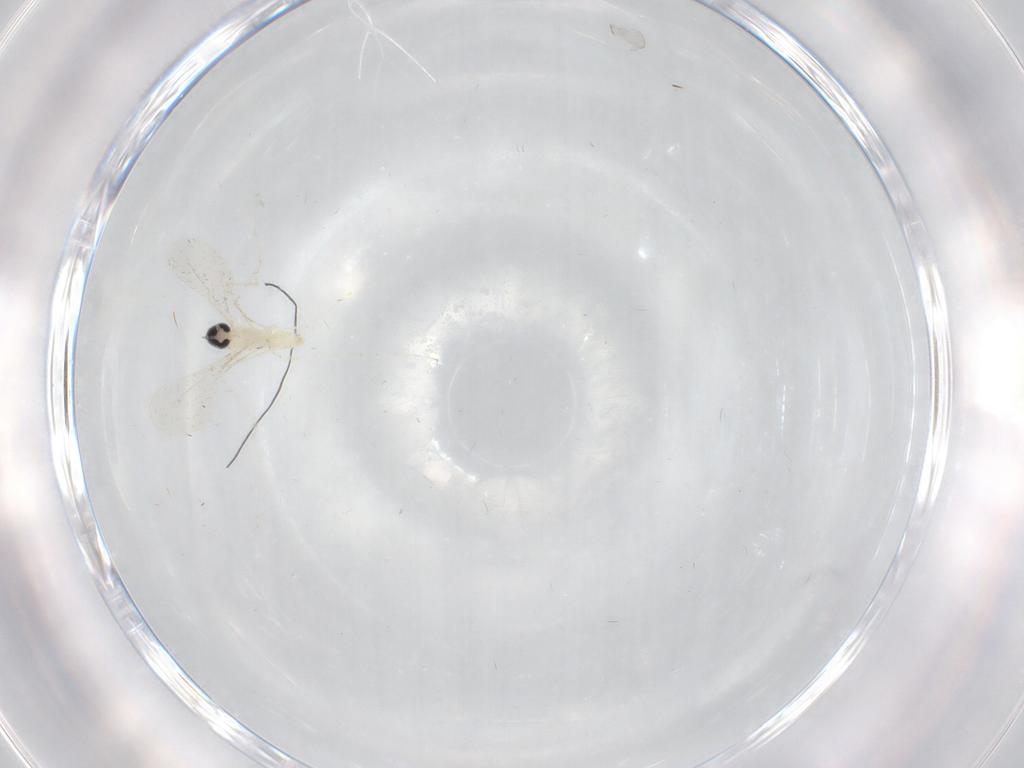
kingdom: Animalia
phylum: Arthropoda
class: Insecta
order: Diptera
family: Cecidomyiidae
